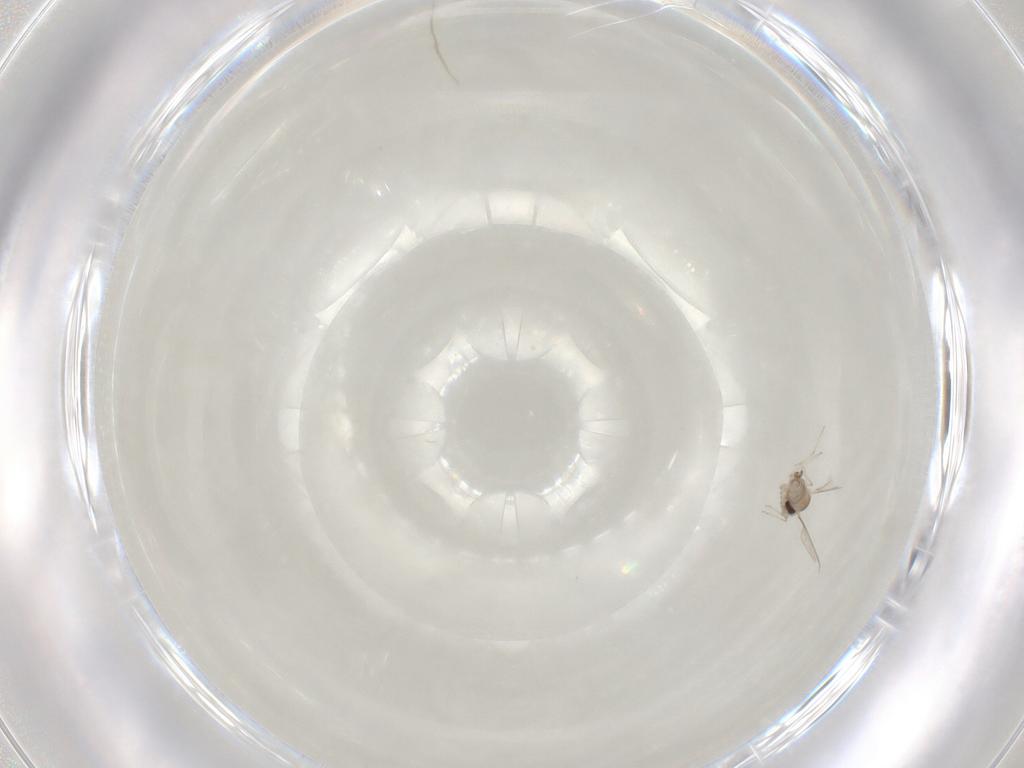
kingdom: Animalia
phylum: Arthropoda
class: Insecta
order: Diptera
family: Cecidomyiidae
